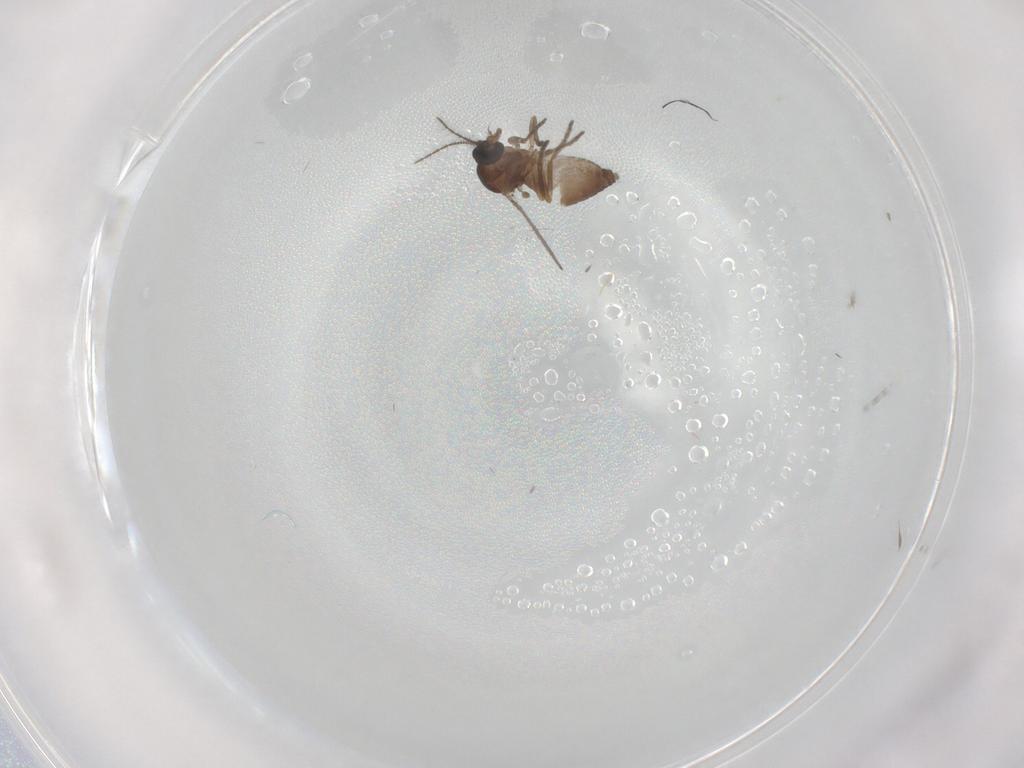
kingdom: Animalia
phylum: Arthropoda
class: Insecta
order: Diptera
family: Ceratopogonidae
